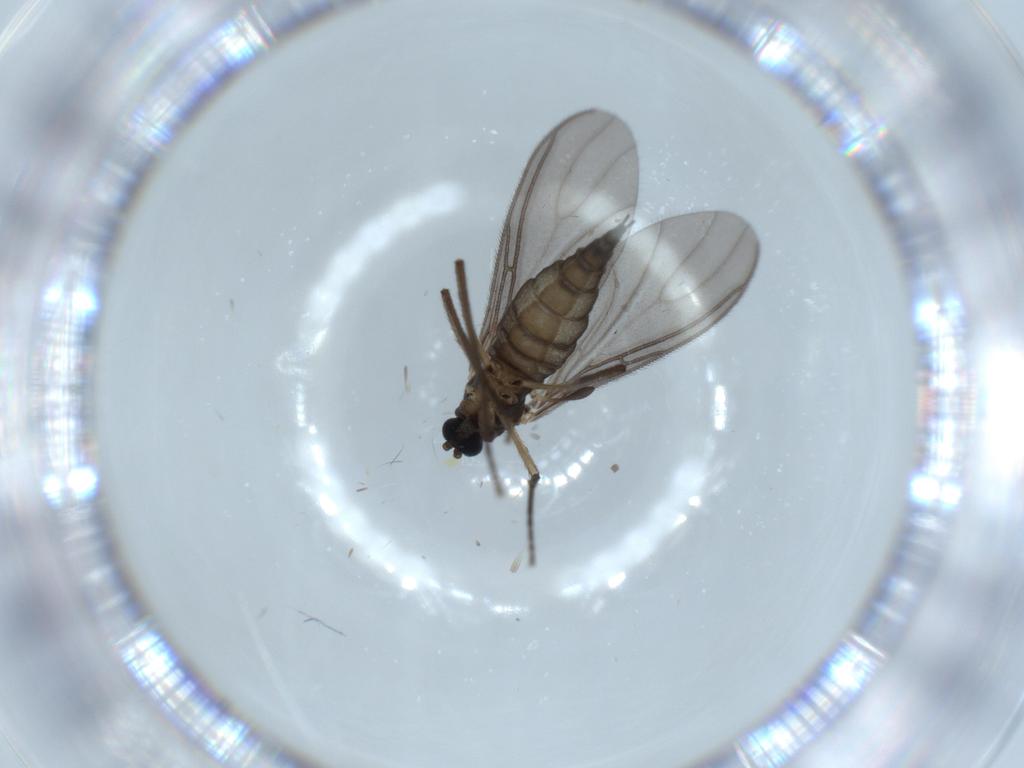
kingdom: Animalia
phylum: Arthropoda
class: Insecta
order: Diptera
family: Sciaridae
